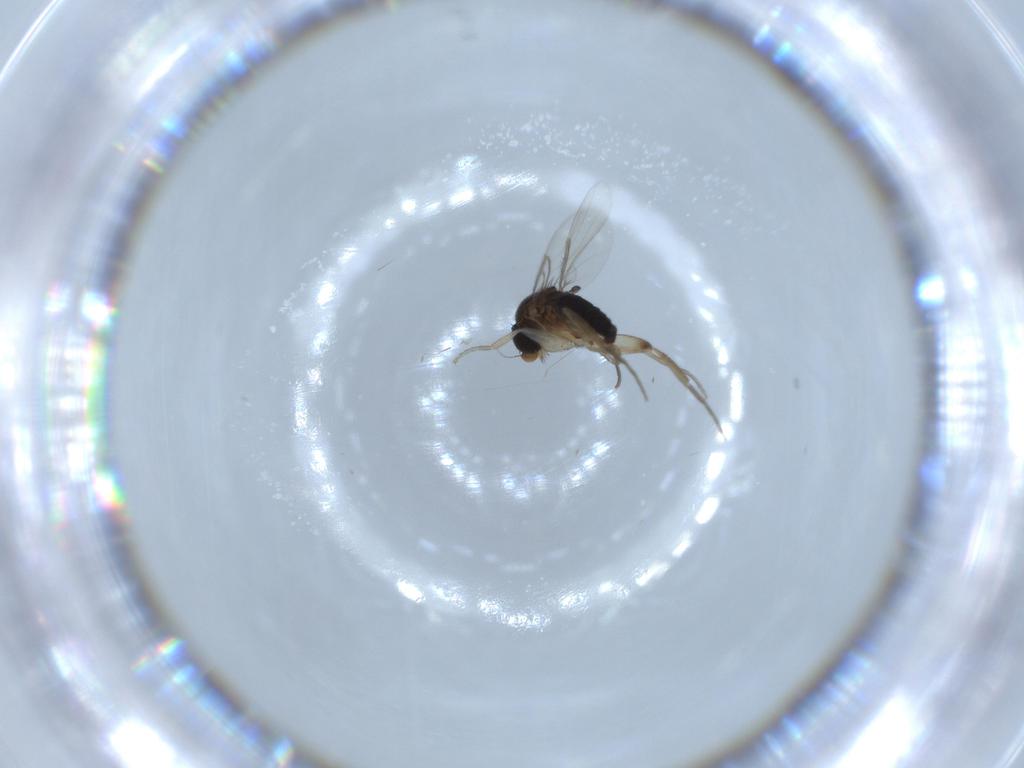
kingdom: Animalia
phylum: Arthropoda
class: Insecta
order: Diptera
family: Phoridae
